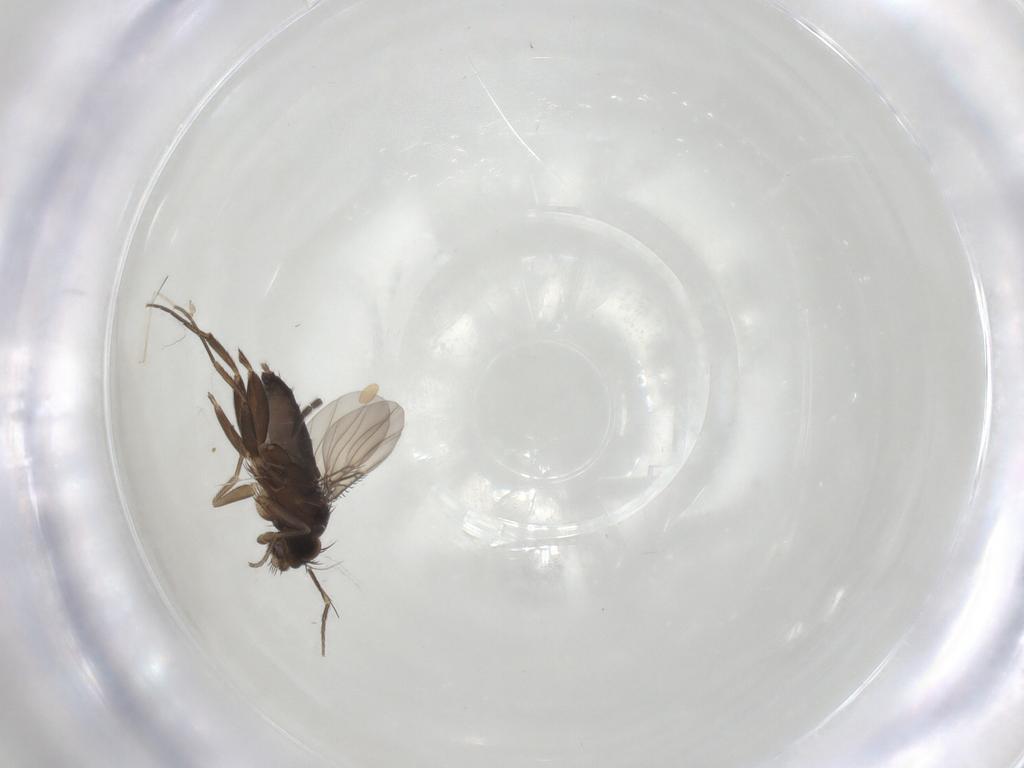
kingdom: Animalia
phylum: Arthropoda
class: Insecta
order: Diptera
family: Phoridae
